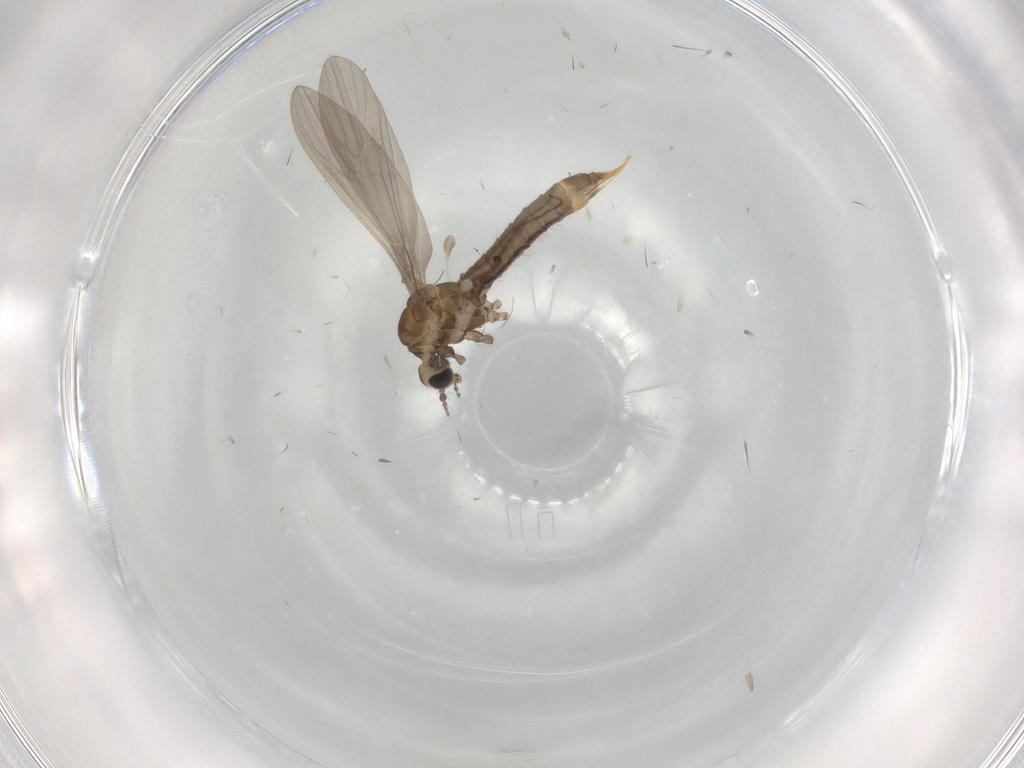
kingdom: Animalia
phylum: Arthropoda
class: Insecta
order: Diptera
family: Limoniidae
